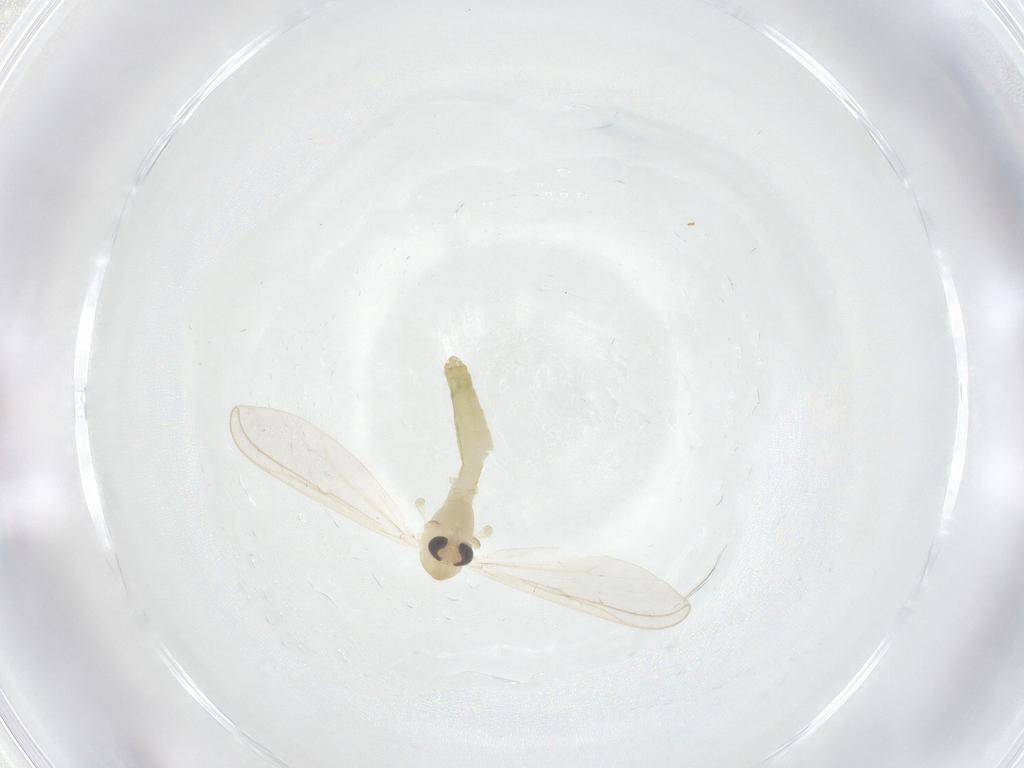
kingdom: Animalia
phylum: Arthropoda
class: Insecta
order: Diptera
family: Chironomidae
